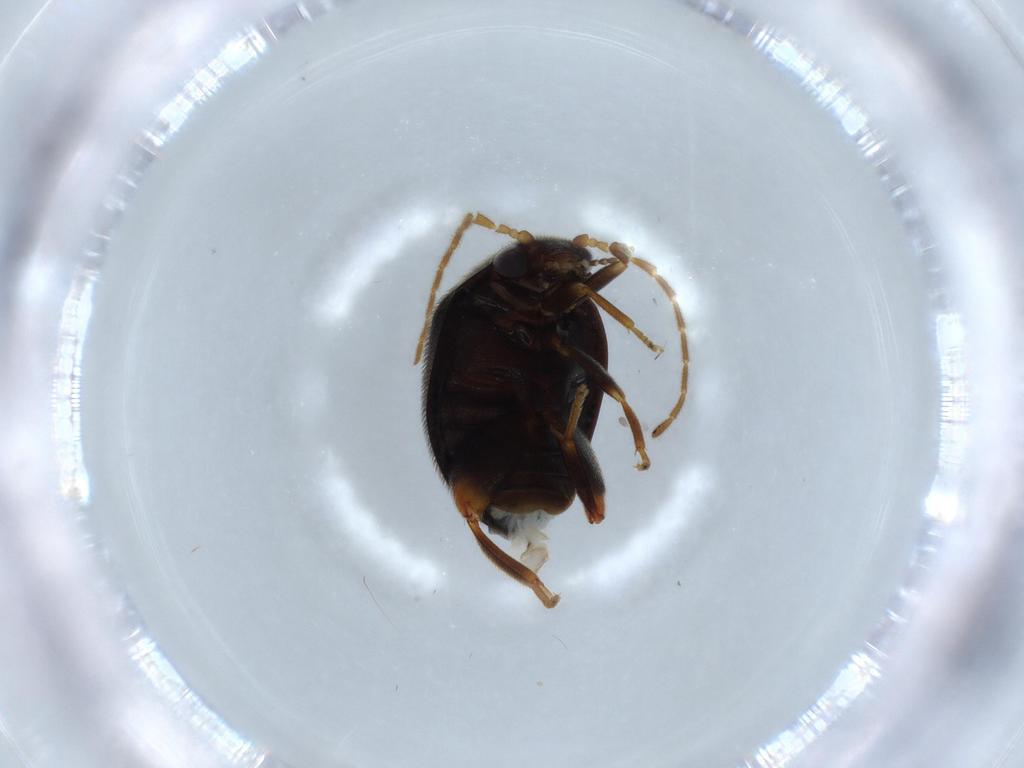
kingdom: Animalia
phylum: Arthropoda
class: Insecta
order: Coleoptera
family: Scirtidae
